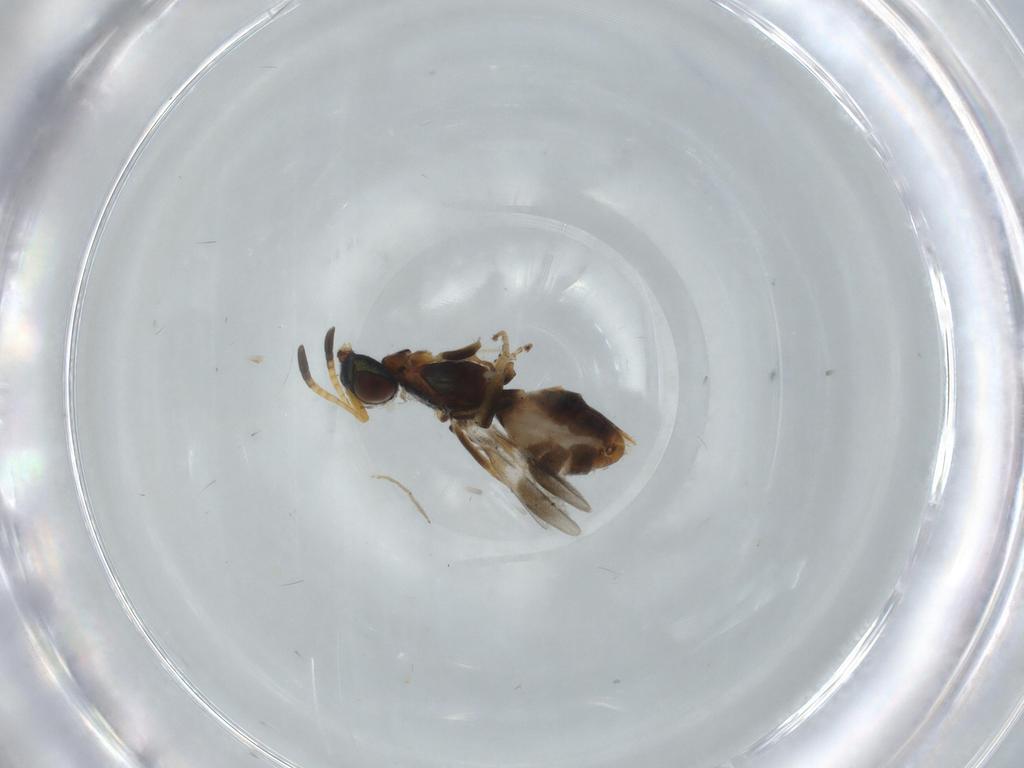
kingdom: Animalia
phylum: Arthropoda
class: Insecta
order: Hymenoptera
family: Eupelmidae
